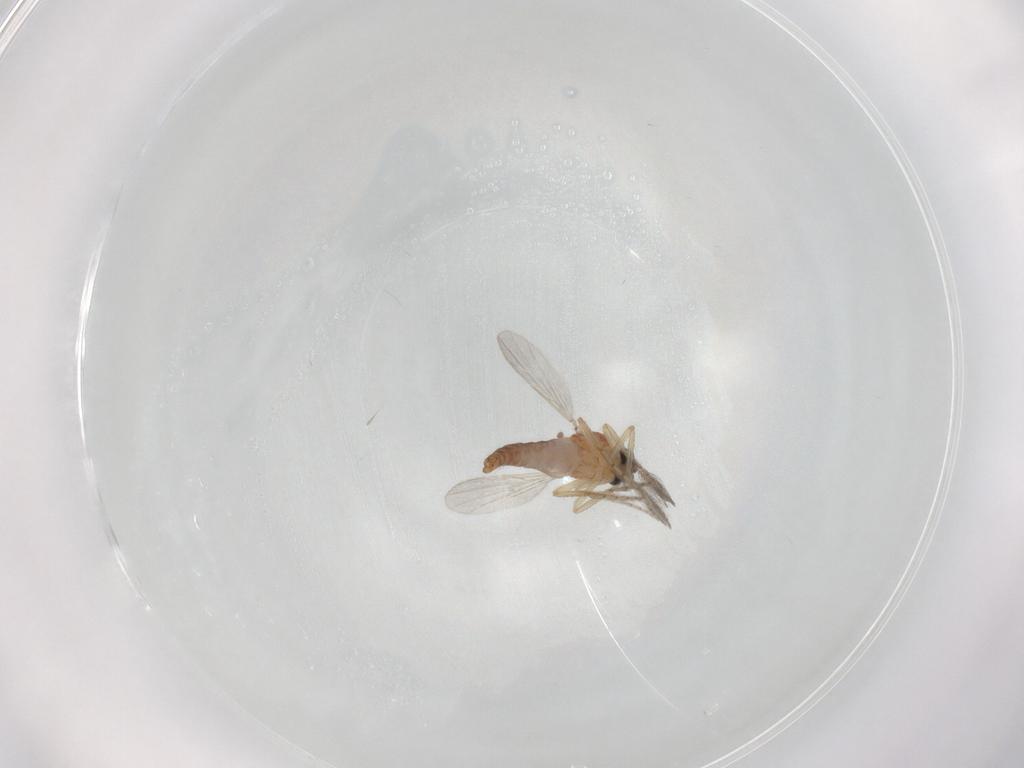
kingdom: Animalia
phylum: Arthropoda
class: Insecta
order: Diptera
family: Ceratopogonidae
